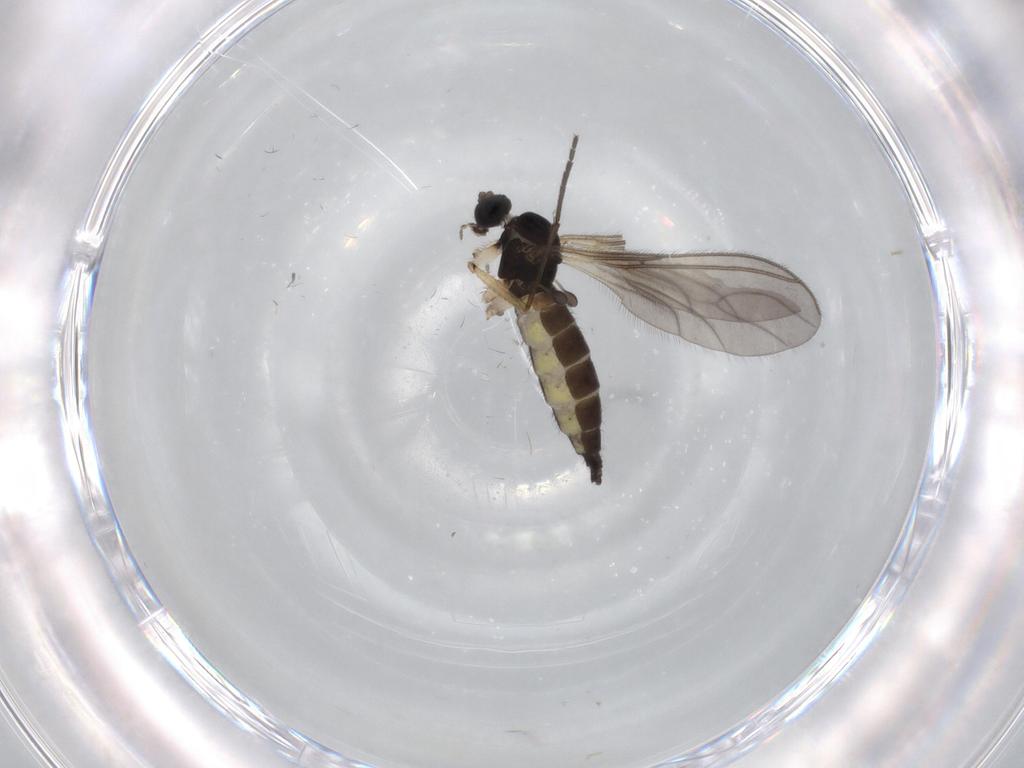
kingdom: Animalia
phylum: Arthropoda
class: Insecta
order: Diptera
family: Sciaridae
